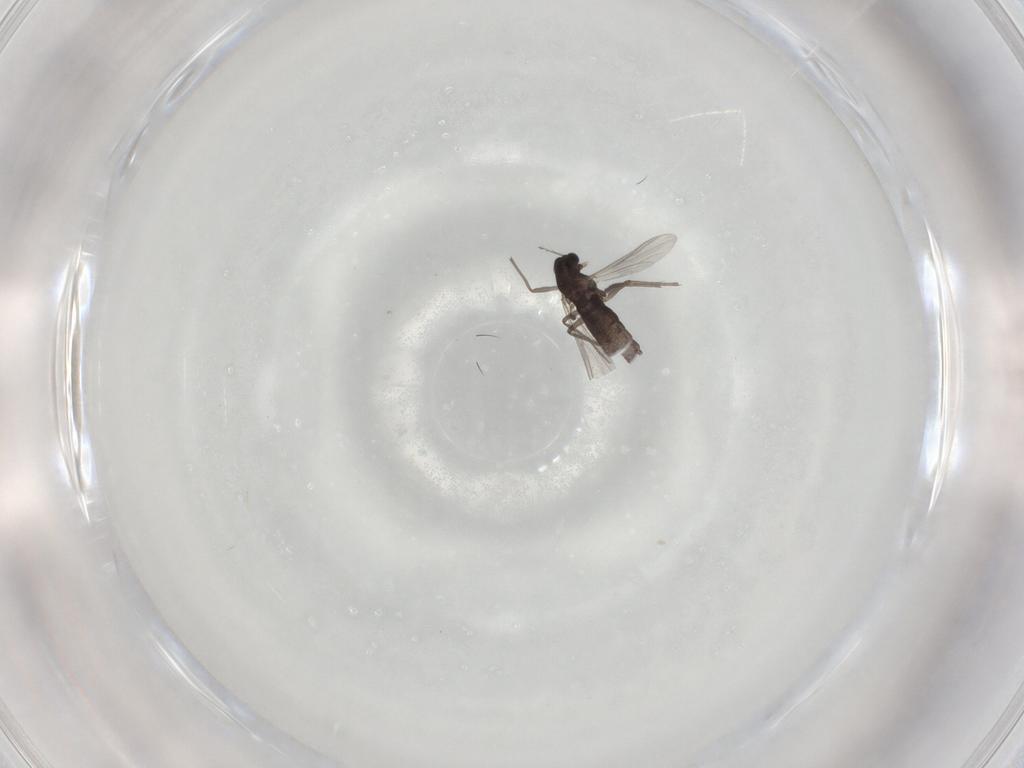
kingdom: Animalia
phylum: Arthropoda
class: Insecta
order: Diptera
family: Chironomidae
